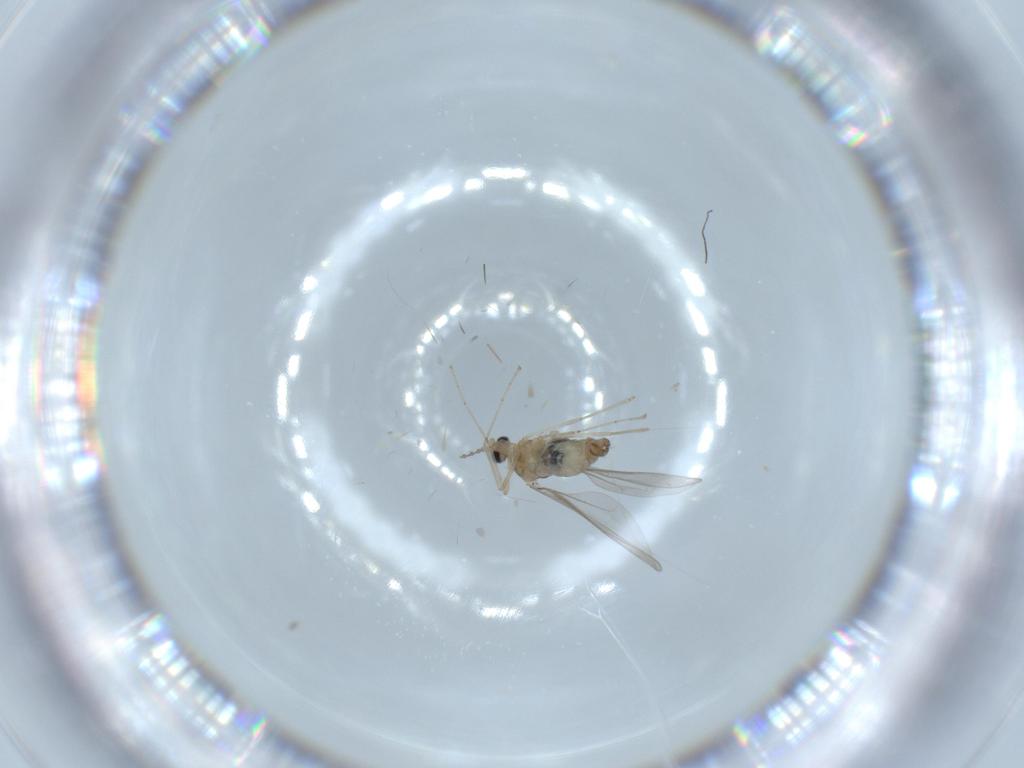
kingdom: Animalia
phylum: Arthropoda
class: Insecta
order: Diptera
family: Cecidomyiidae
